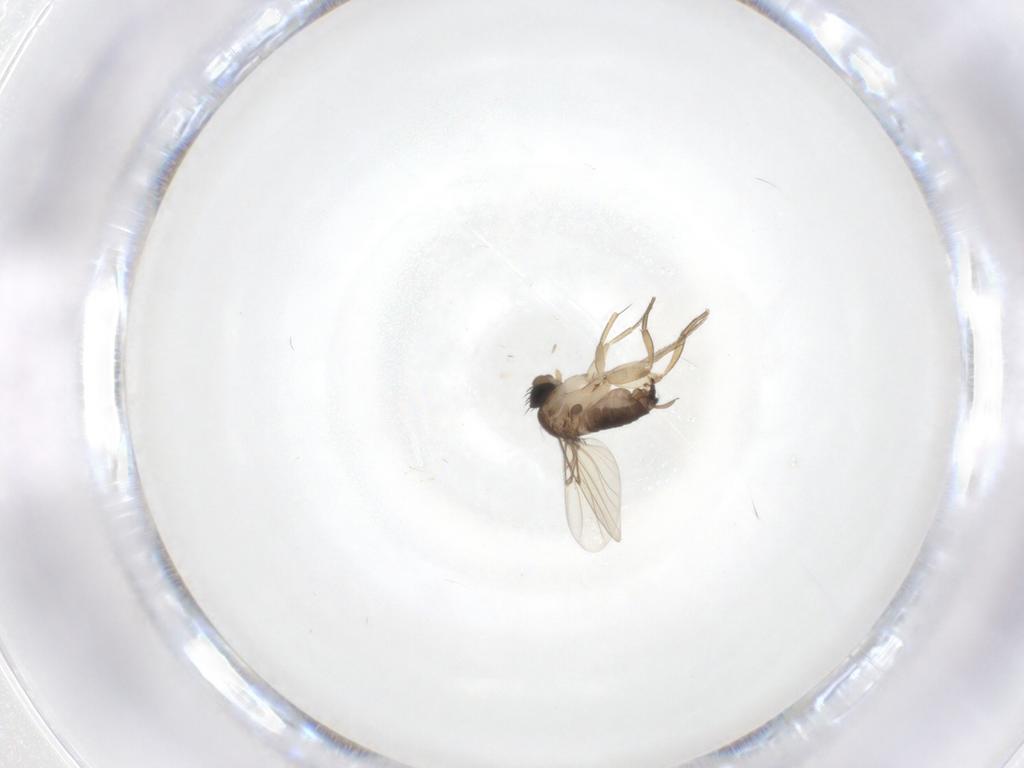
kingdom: Animalia
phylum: Arthropoda
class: Insecta
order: Diptera
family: Phoridae
